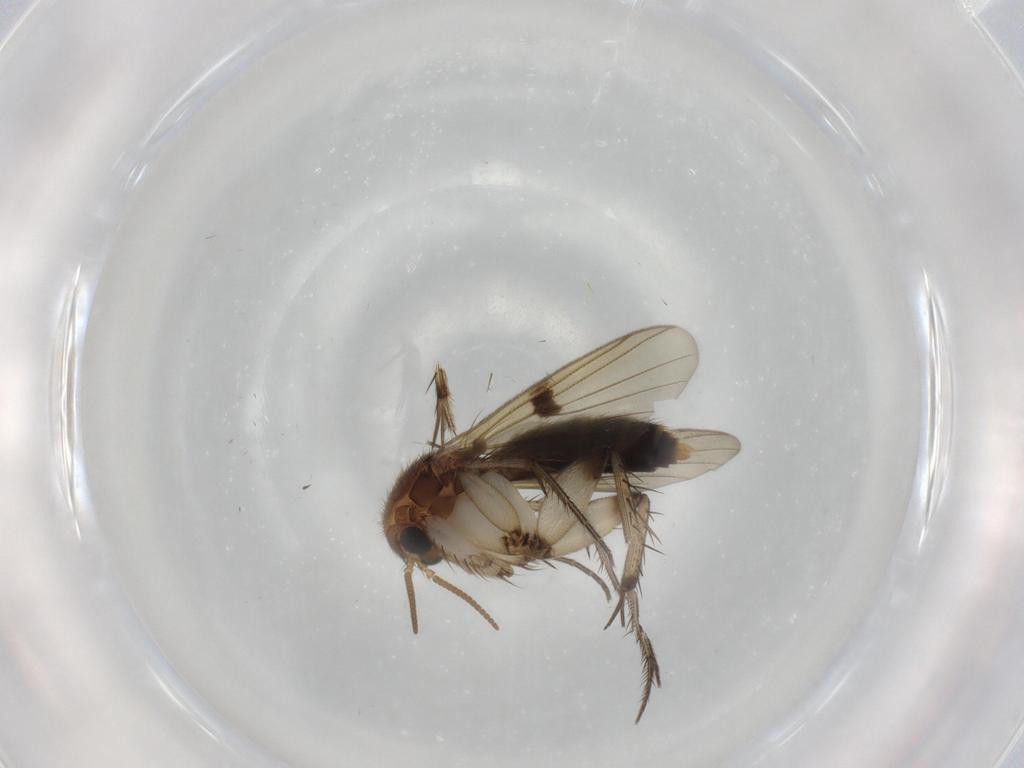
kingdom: Animalia
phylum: Arthropoda
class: Insecta
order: Diptera
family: Mycetophilidae
